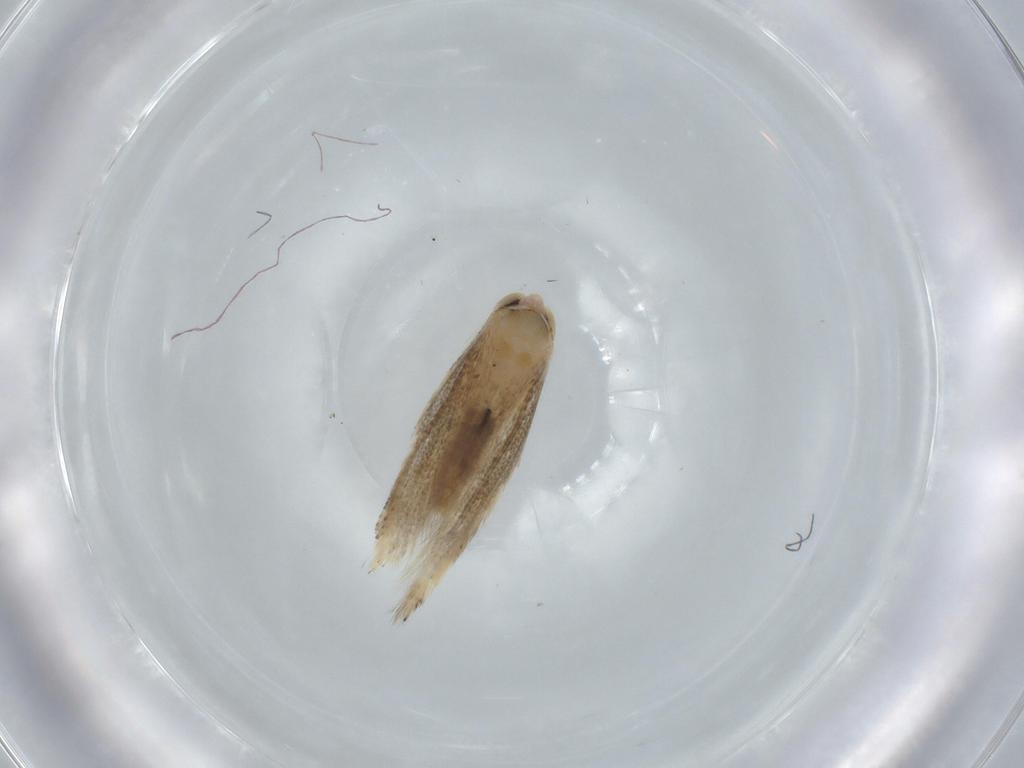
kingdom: Animalia
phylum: Arthropoda
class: Insecta
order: Lepidoptera
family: Bucculatricidae
